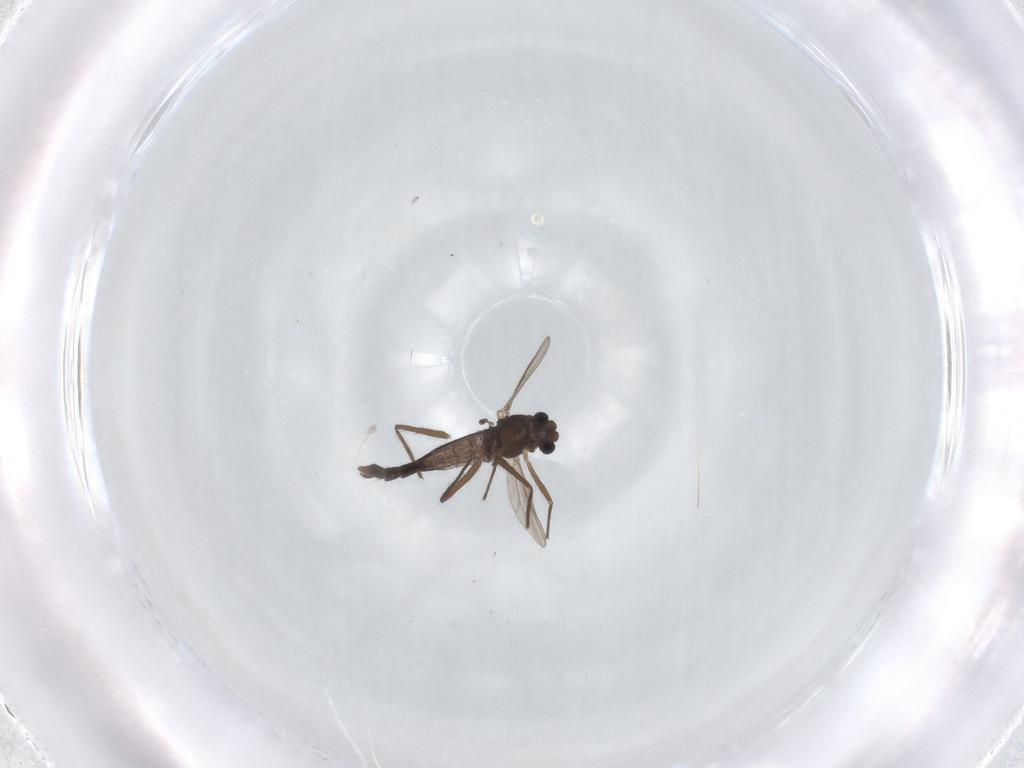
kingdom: Animalia
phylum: Arthropoda
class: Insecta
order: Diptera
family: Chironomidae
